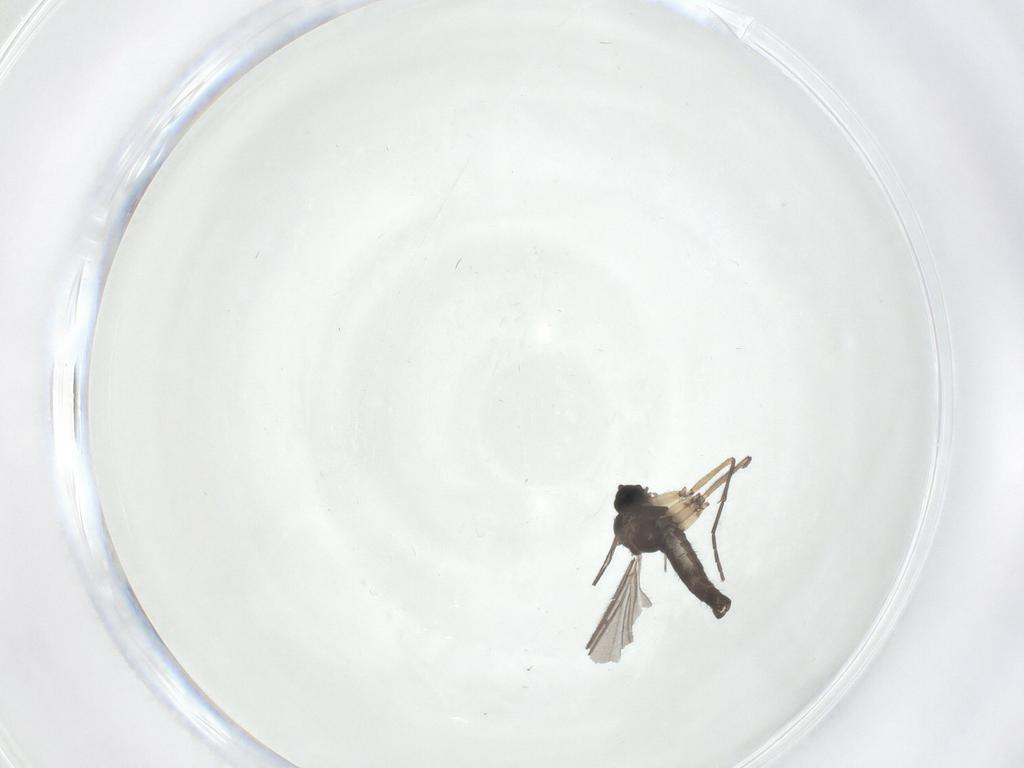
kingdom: Animalia
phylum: Arthropoda
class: Insecta
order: Diptera
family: Sciaridae
